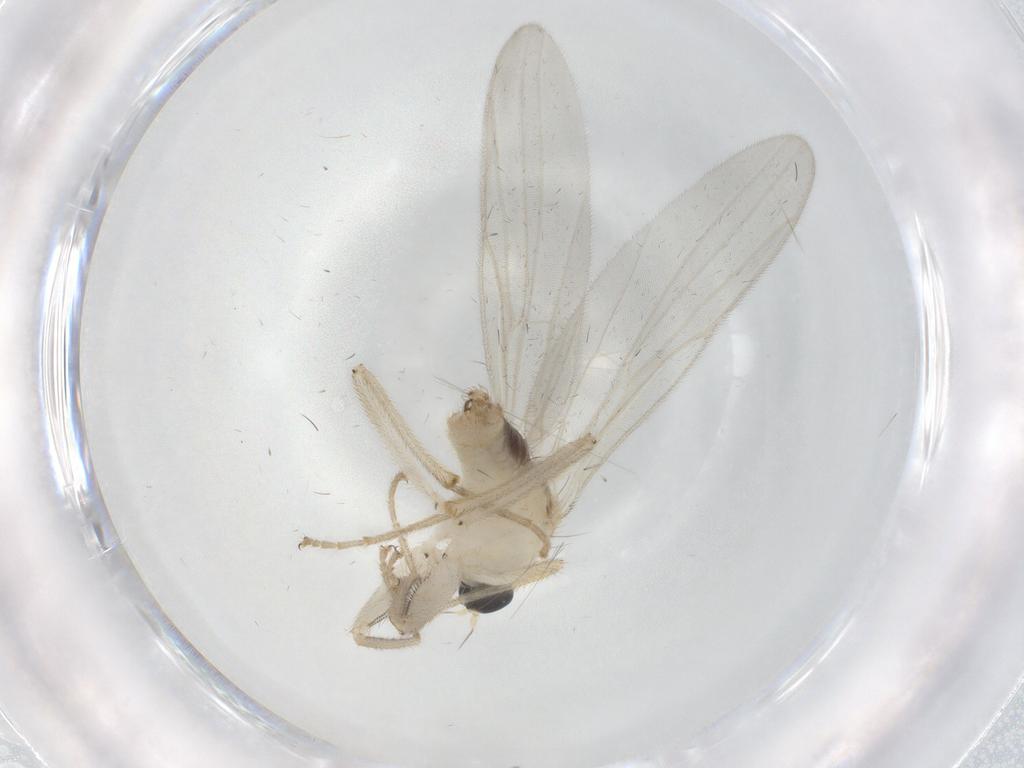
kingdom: Animalia
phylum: Arthropoda
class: Insecta
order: Diptera
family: Hybotidae
